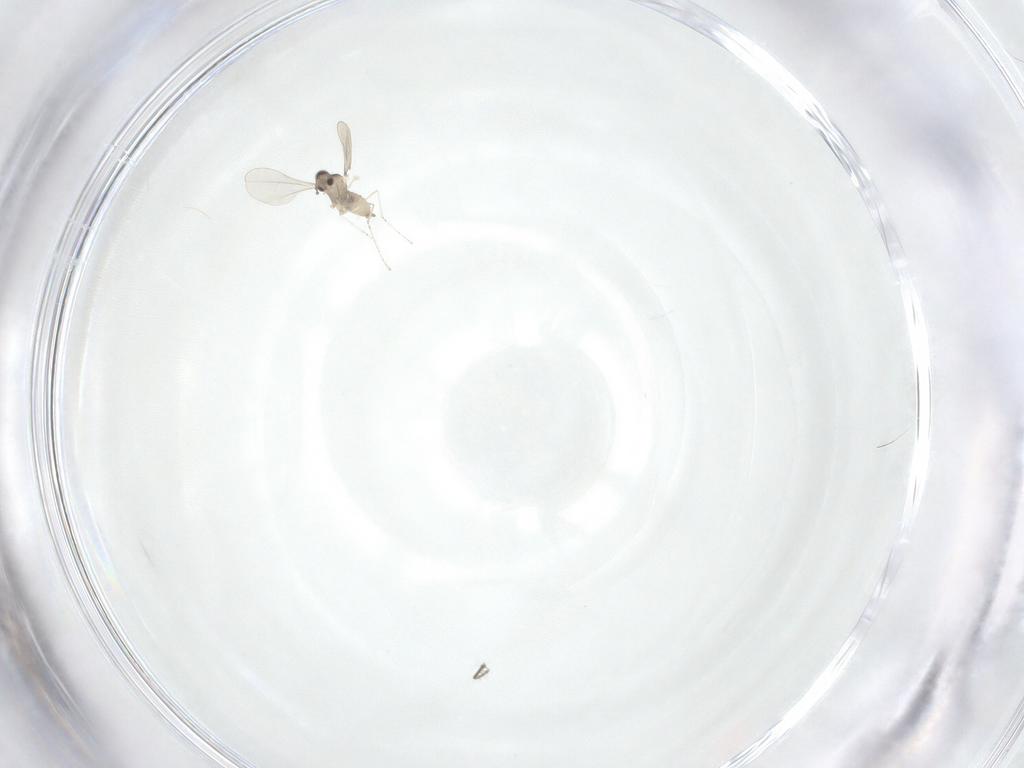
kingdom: Animalia
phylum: Arthropoda
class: Insecta
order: Diptera
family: Cecidomyiidae
